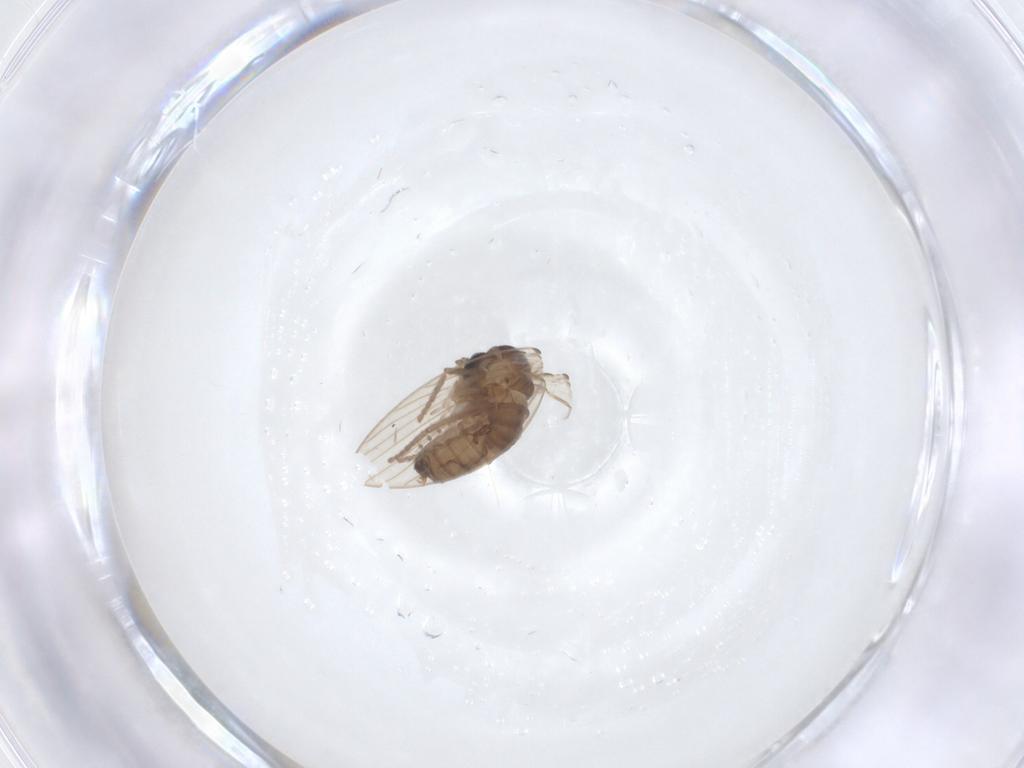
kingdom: Animalia
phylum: Arthropoda
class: Insecta
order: Diptera
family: Psychodidae
